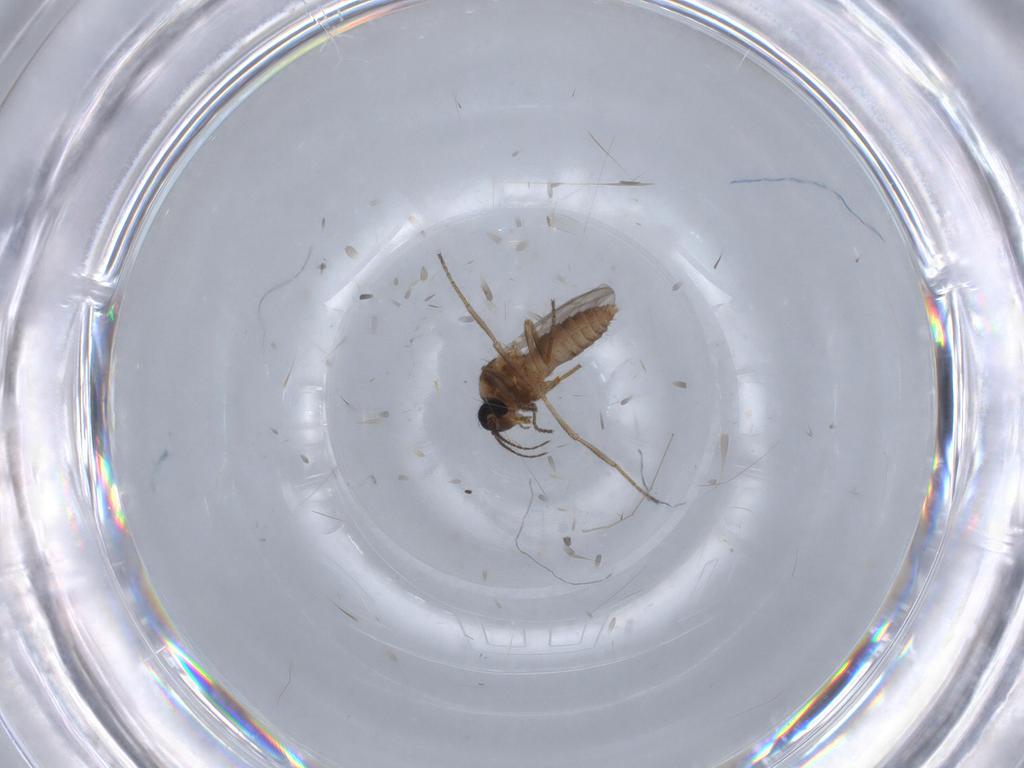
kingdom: Animalia
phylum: Arthropoda
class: Insecta
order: Diptera
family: Ceratopogonidae
